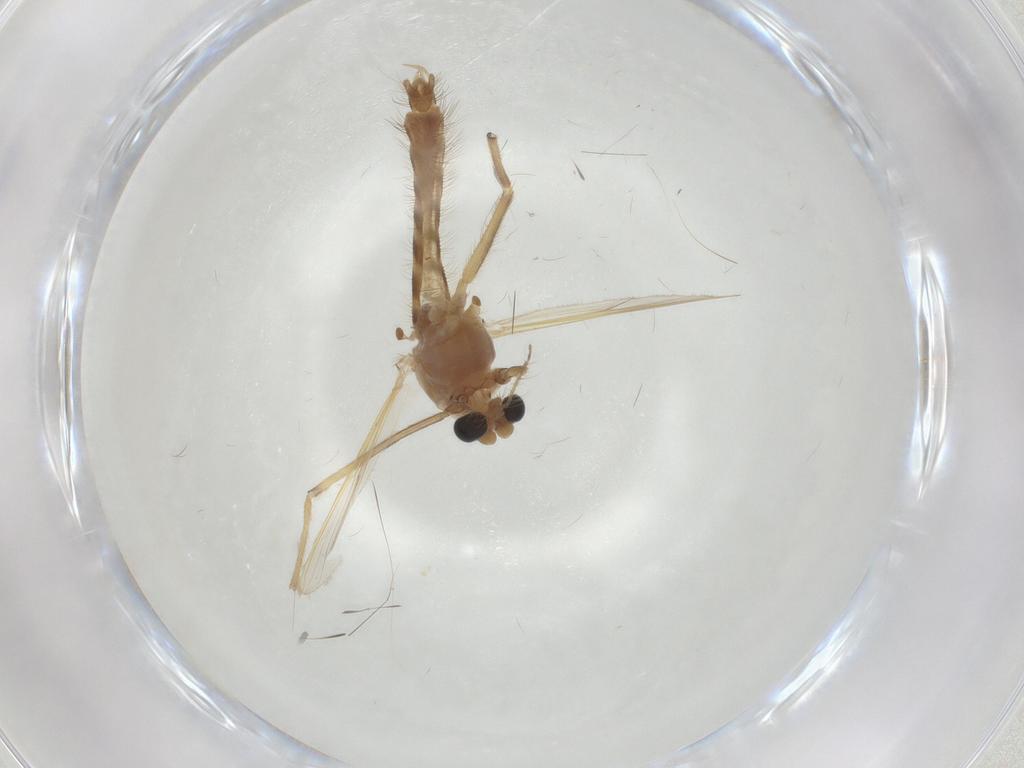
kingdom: Animalia
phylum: Arthropoda
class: Insecta
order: Diptera
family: Chironomidae
